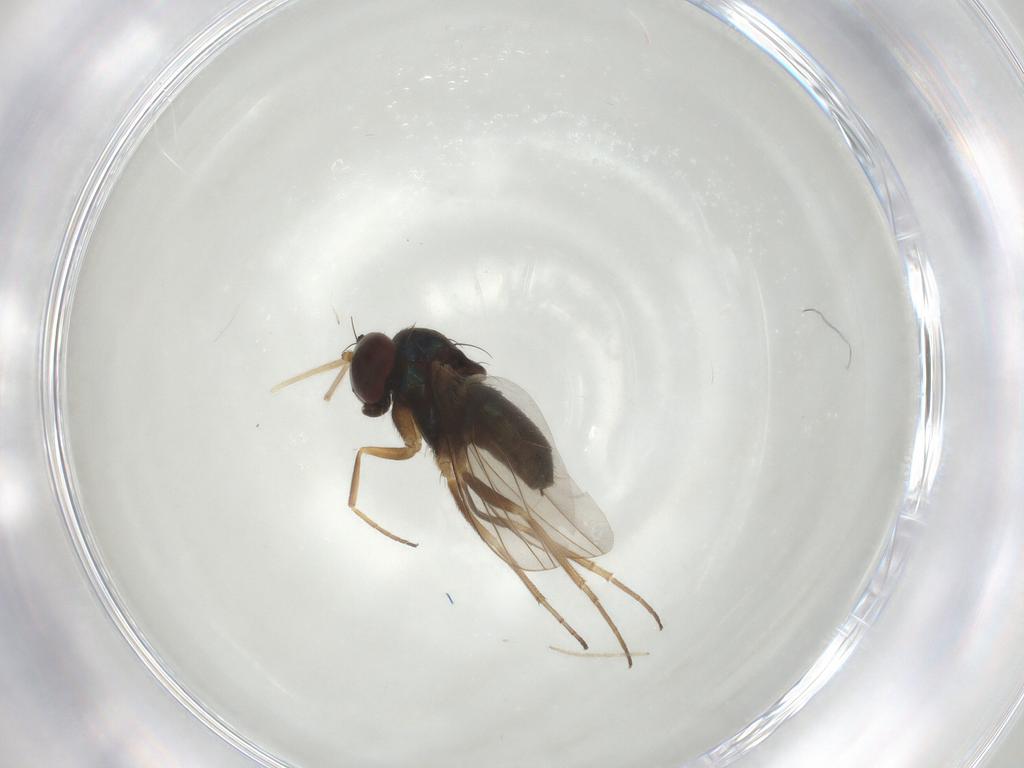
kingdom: Animalia
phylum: Arthropoda
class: Insecta
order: Diptera
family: Dolichopodidae
